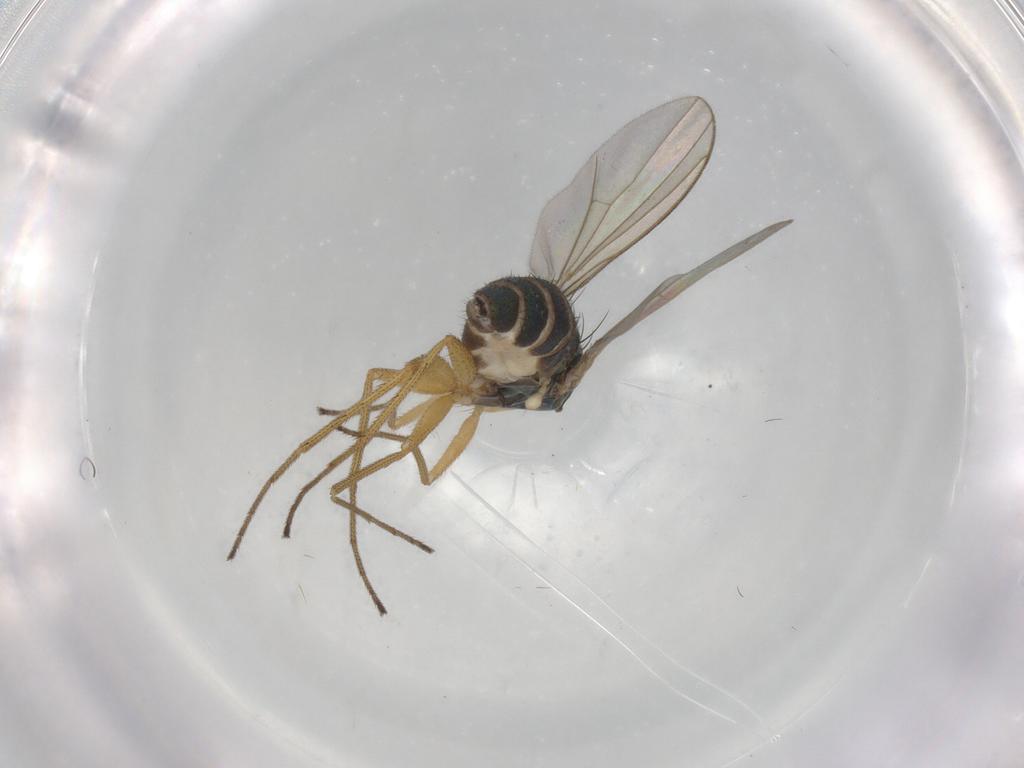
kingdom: Animalia
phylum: Arthropoda
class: Insecta
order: Diptera
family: Dolichopodidae
